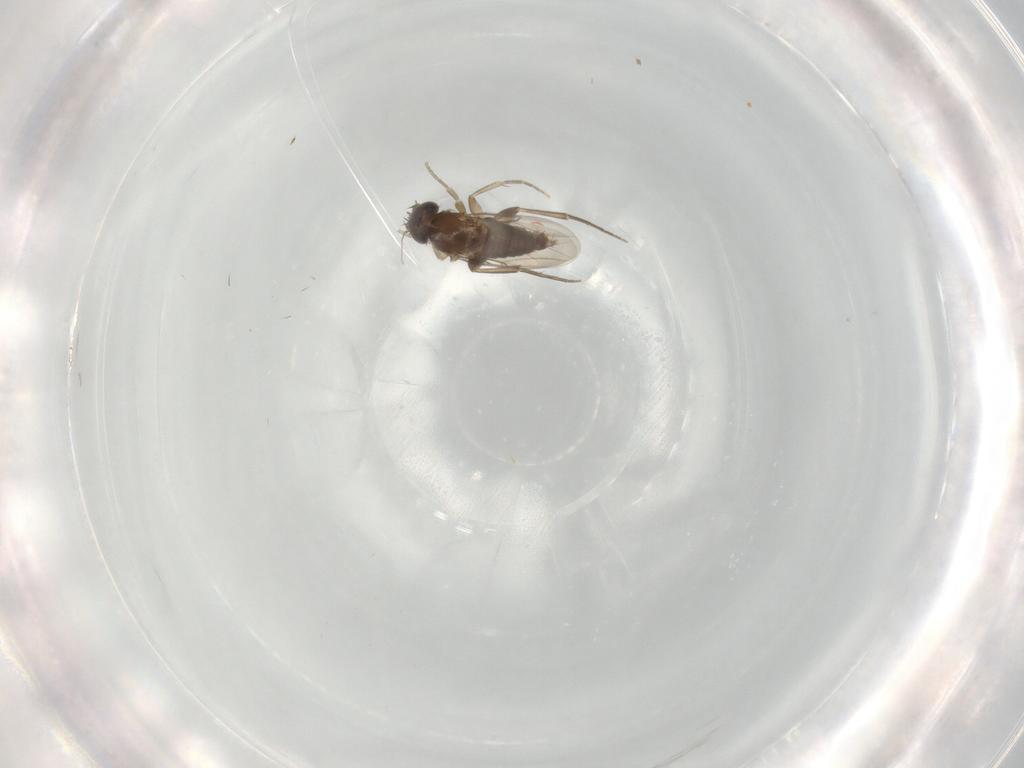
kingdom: Animalia
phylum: Arthropoda
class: Insecta
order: Diptera
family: Phoridae
